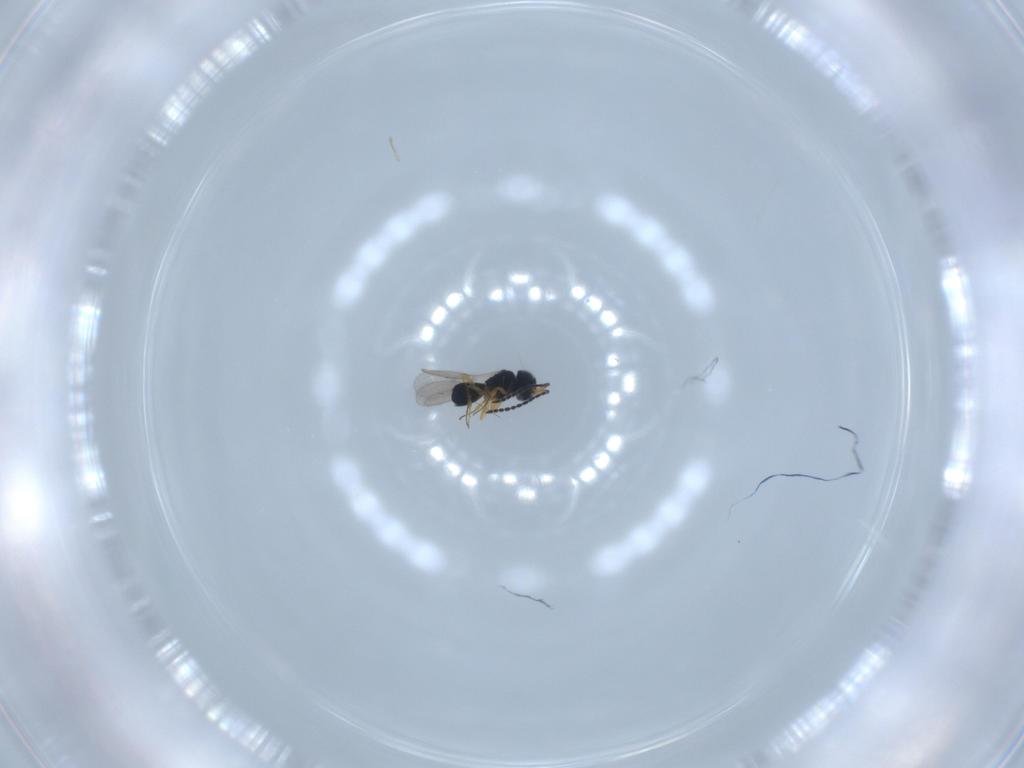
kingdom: Animalia
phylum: Arthropoda
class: Insecta
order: Hymenoptera
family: Scelionidae
